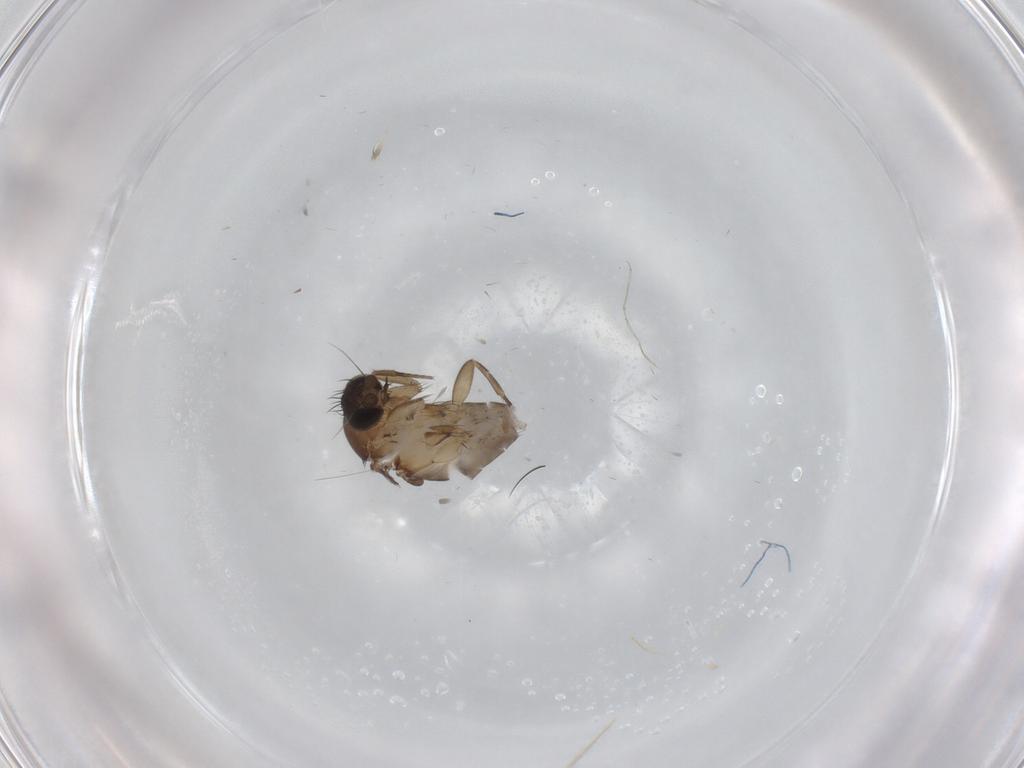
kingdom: Animalia
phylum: Arthropoda
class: Insecta
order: Diptera
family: Phoridae
